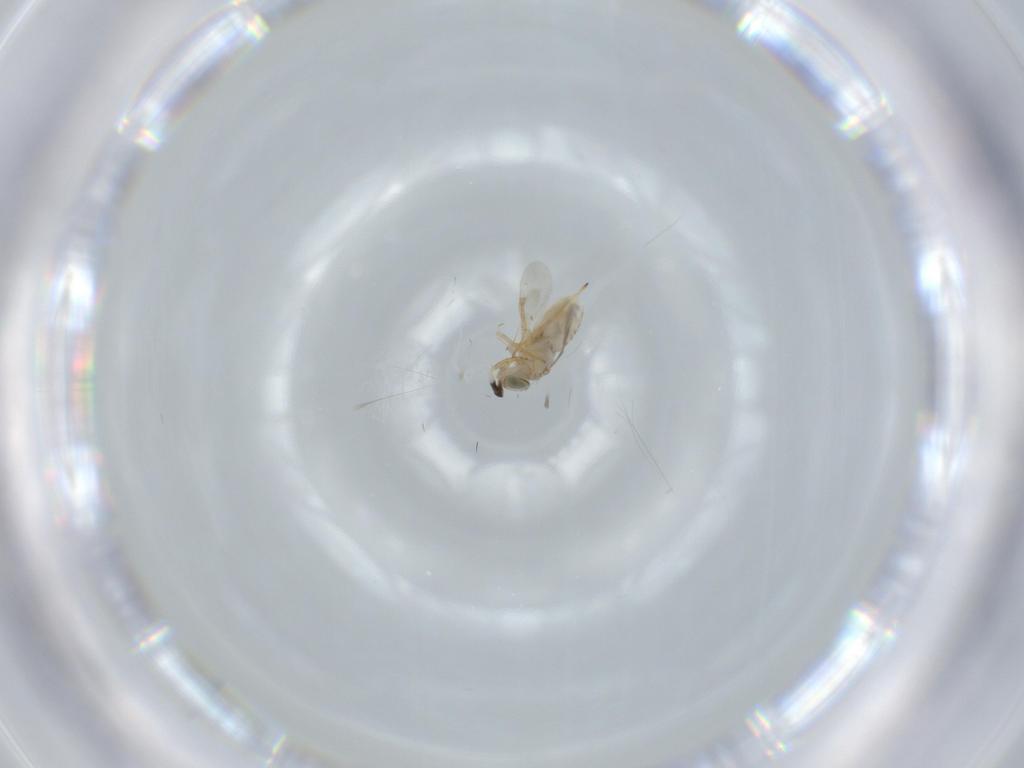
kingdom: Animalia
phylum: Arthropoda
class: Insecta
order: Diptera
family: Phoridae
